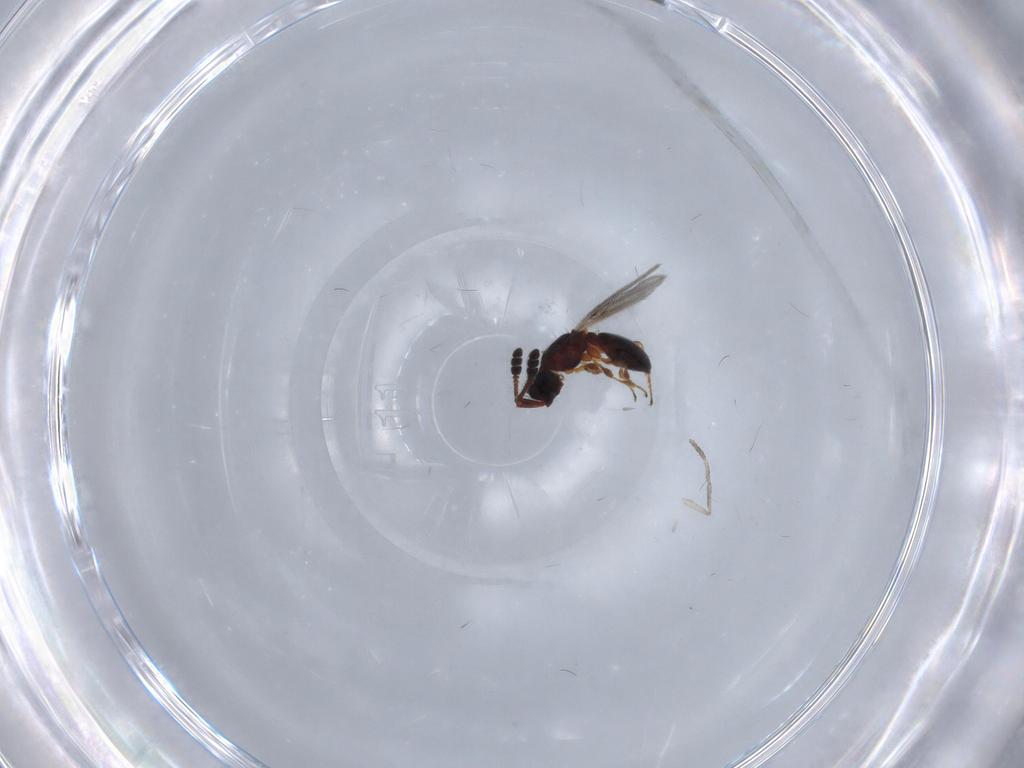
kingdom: Animalia
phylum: Arthropoda
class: Insecta
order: Hymenoptera
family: Diapriidae
